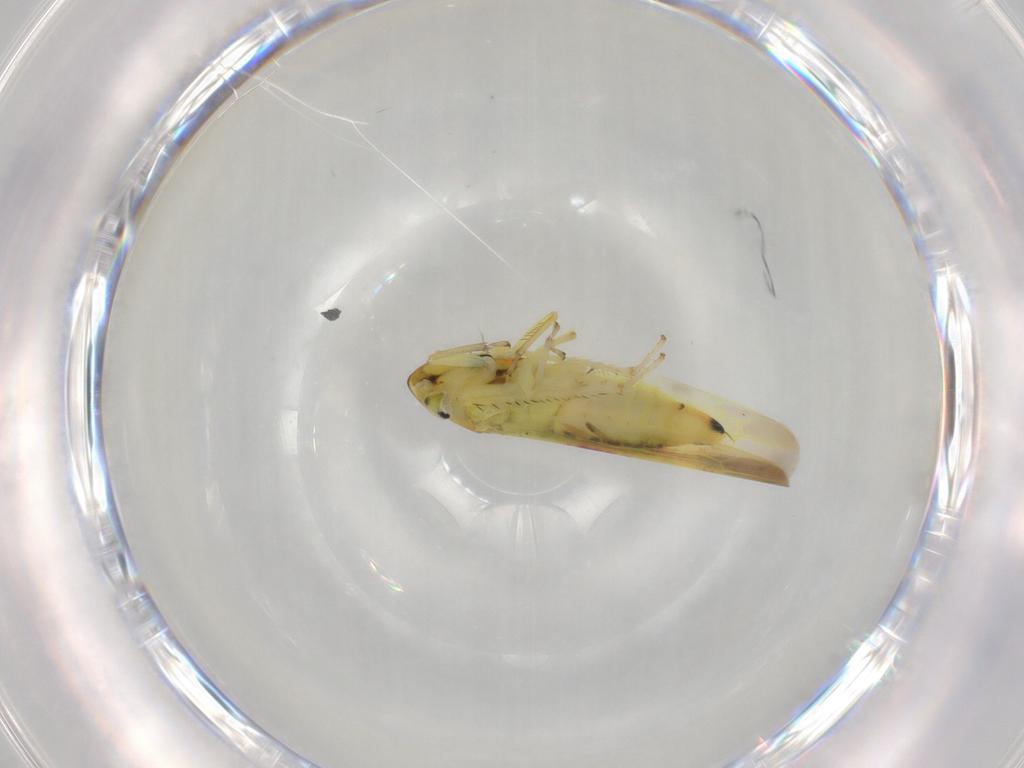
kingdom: Animalia
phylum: Arthropoda
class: Insecta
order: Hemiptera
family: Cicadellidae
